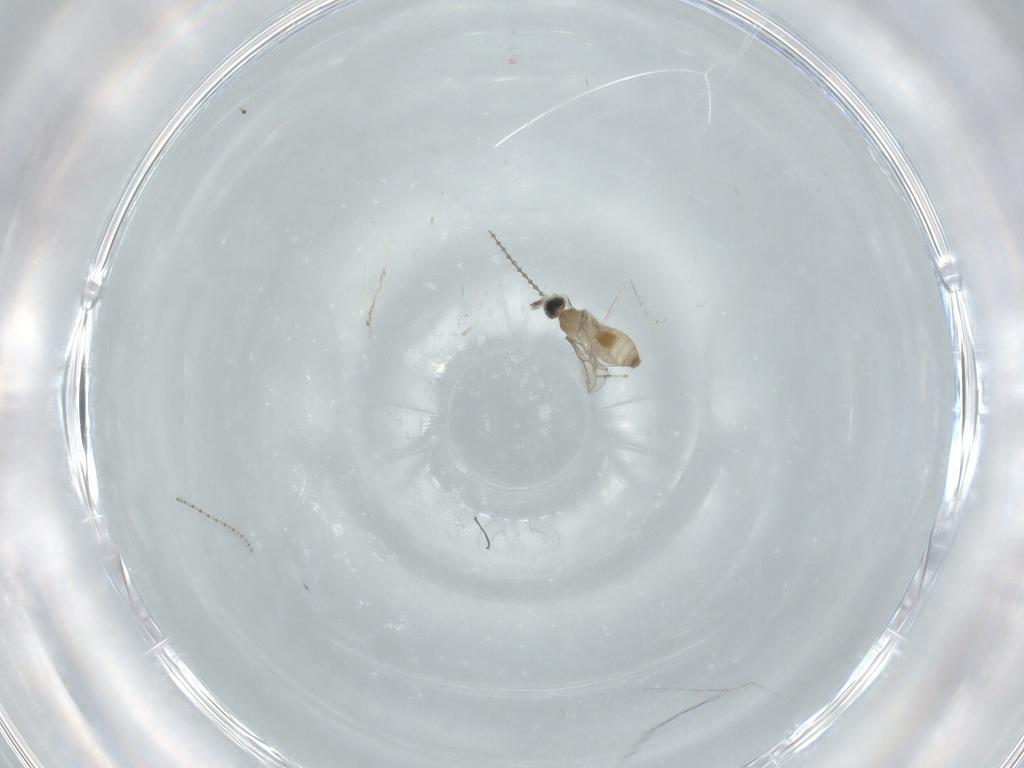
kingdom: Animalia
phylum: Arthropoda
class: Insecta
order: Diptera
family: Cecidomyiidae
